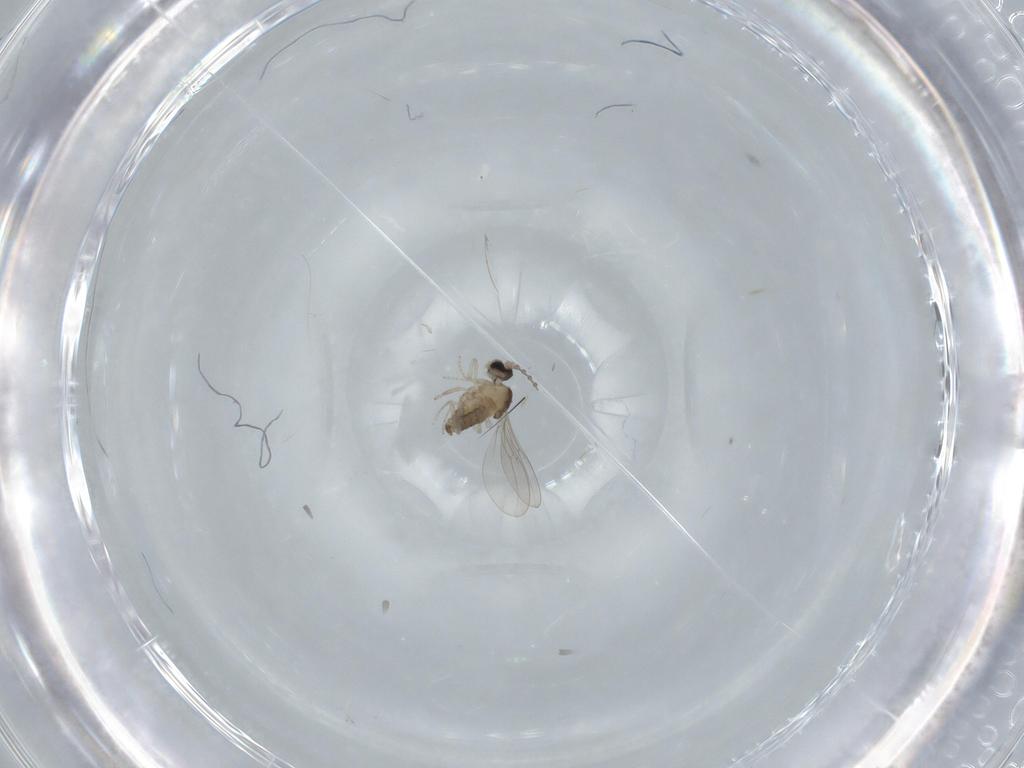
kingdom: Animalia
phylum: Arthropoda
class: Insecta
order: Diptera
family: Cecidomyiidae
